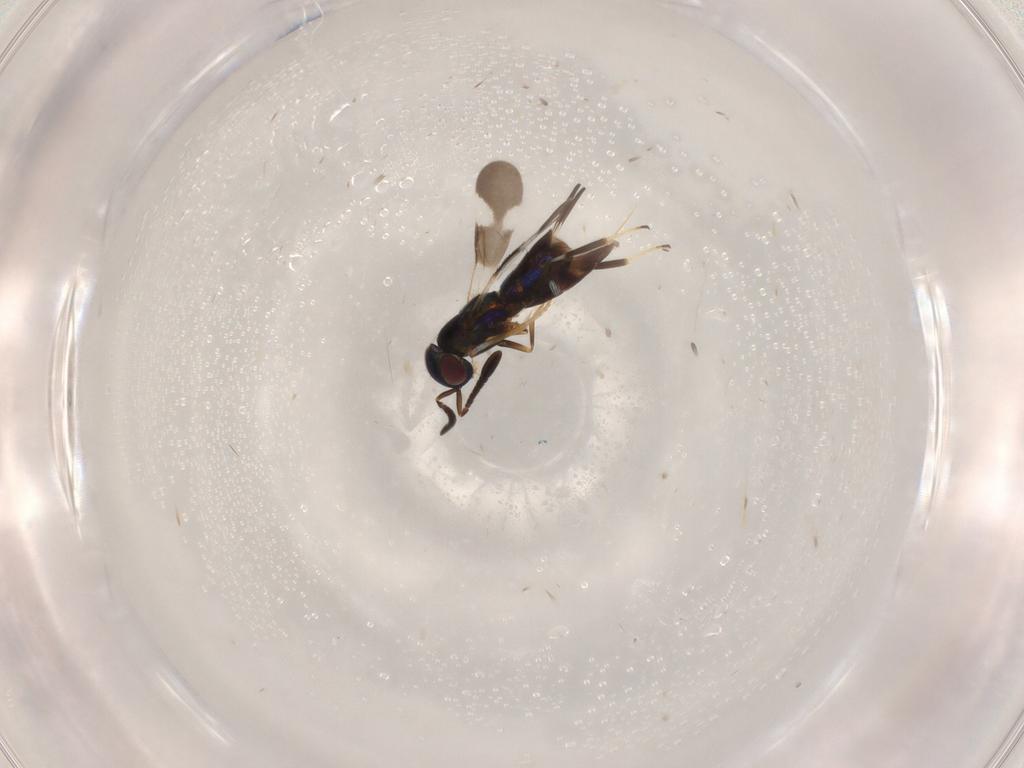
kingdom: Animalia
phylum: Arthropoda
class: Insecta
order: Hymenoptera
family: Encyrtidae
